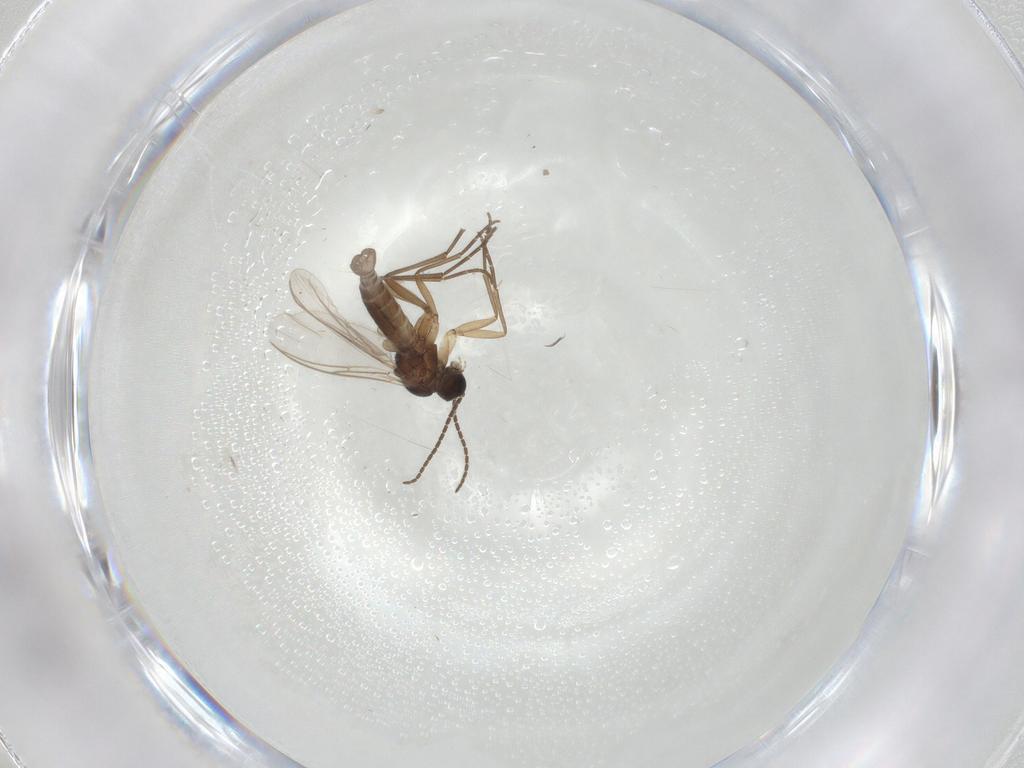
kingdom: Animalia
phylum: Arthropoda
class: Insecta
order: Diptera
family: Sciaridae
